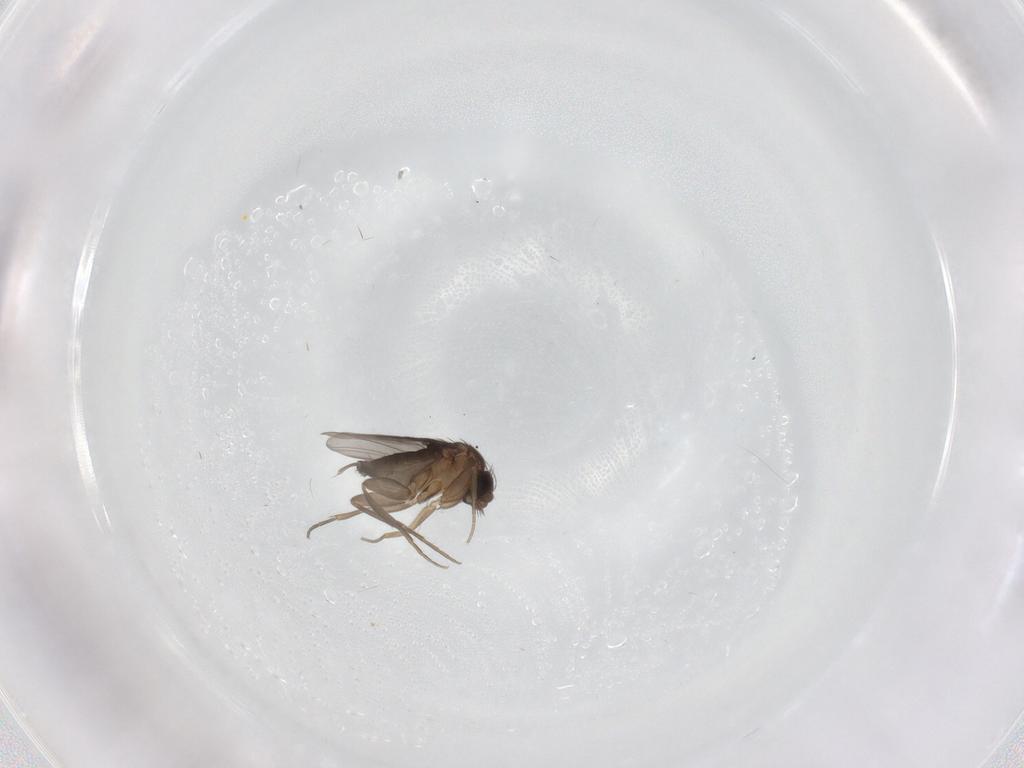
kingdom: Animalia
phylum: Arthropoda
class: Insecta
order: Diptera
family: Phoridae
